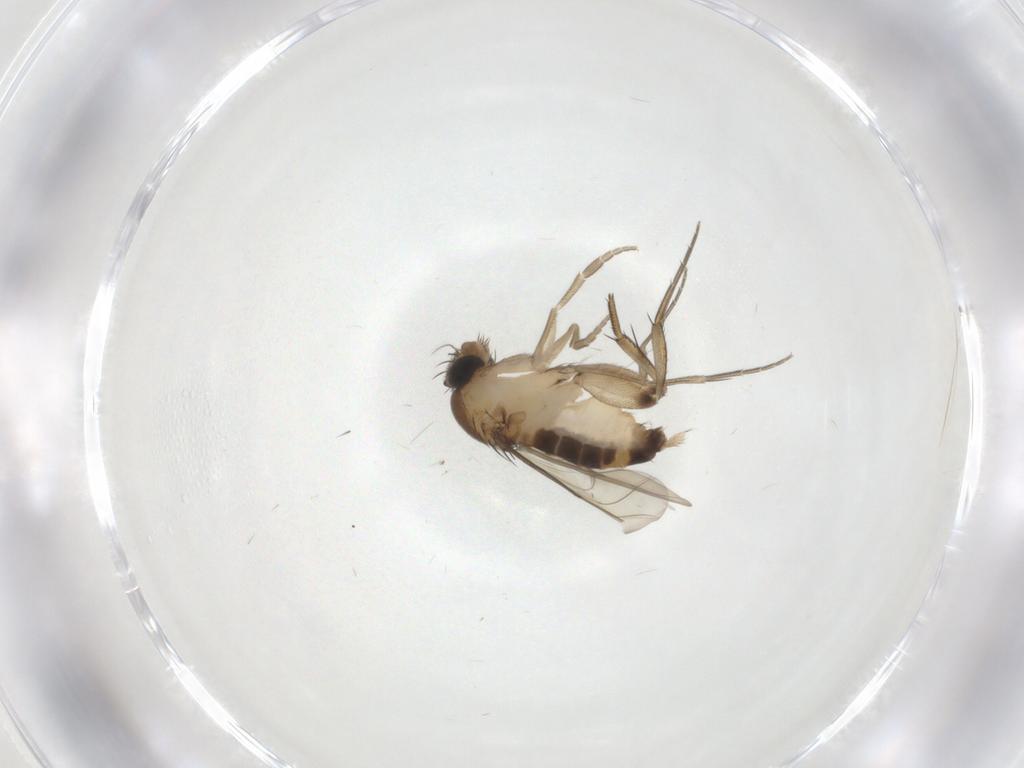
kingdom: Animalia
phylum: Arthropoda
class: Insecta
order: Diptera
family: Phoridae
